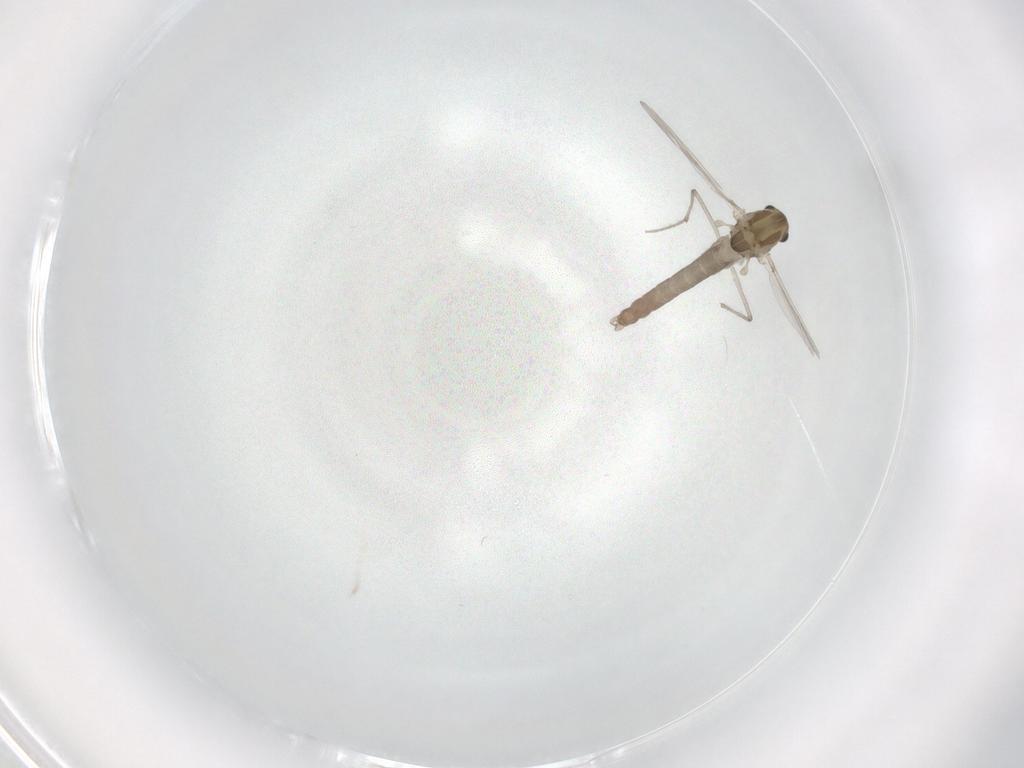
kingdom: Animalia
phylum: Arthropoda
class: Insecta
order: Diptera
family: Chironomidae
